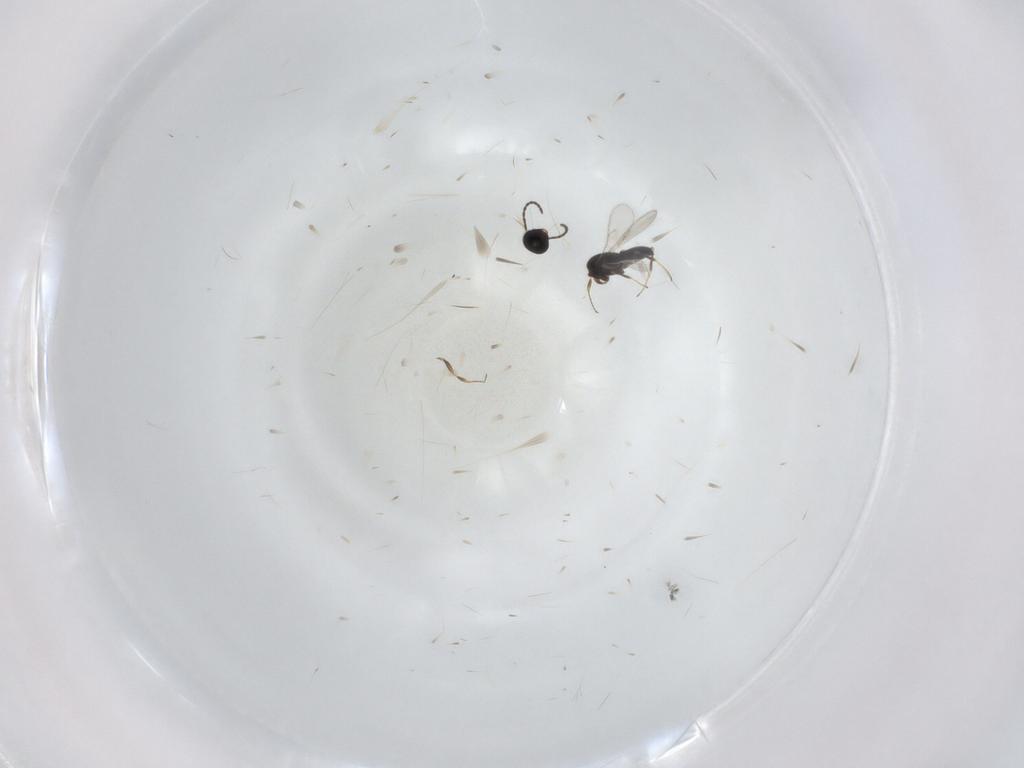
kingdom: Animalia
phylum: Arthropoda
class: Insecta
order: Hymenoptera
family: Scelionidae
